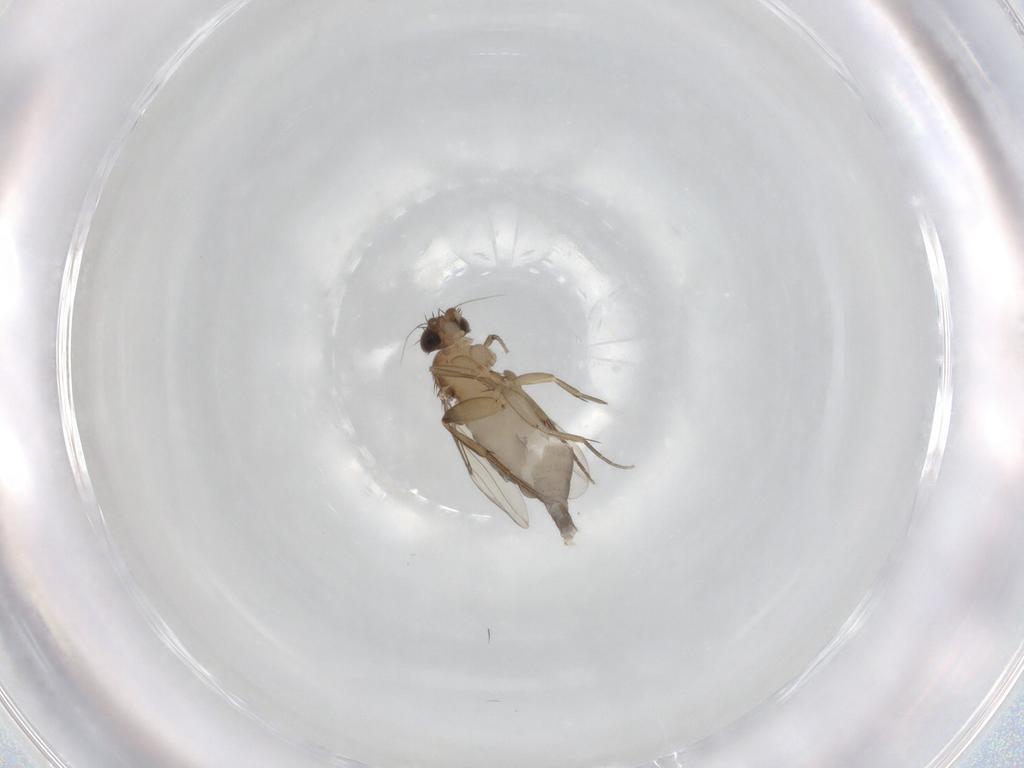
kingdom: Animalia
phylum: Arthropoda
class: Insecta
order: Diptera
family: Phoridae
